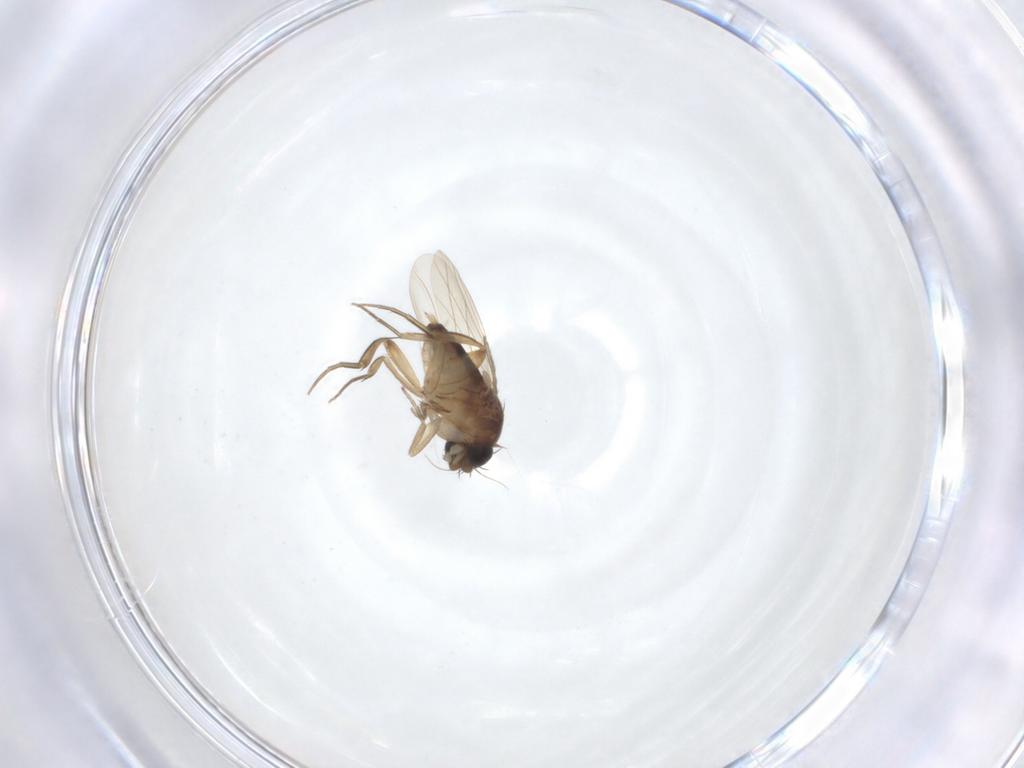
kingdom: Animalia
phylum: Arthropoda
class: Insecta
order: Diptera
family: Phoridae
